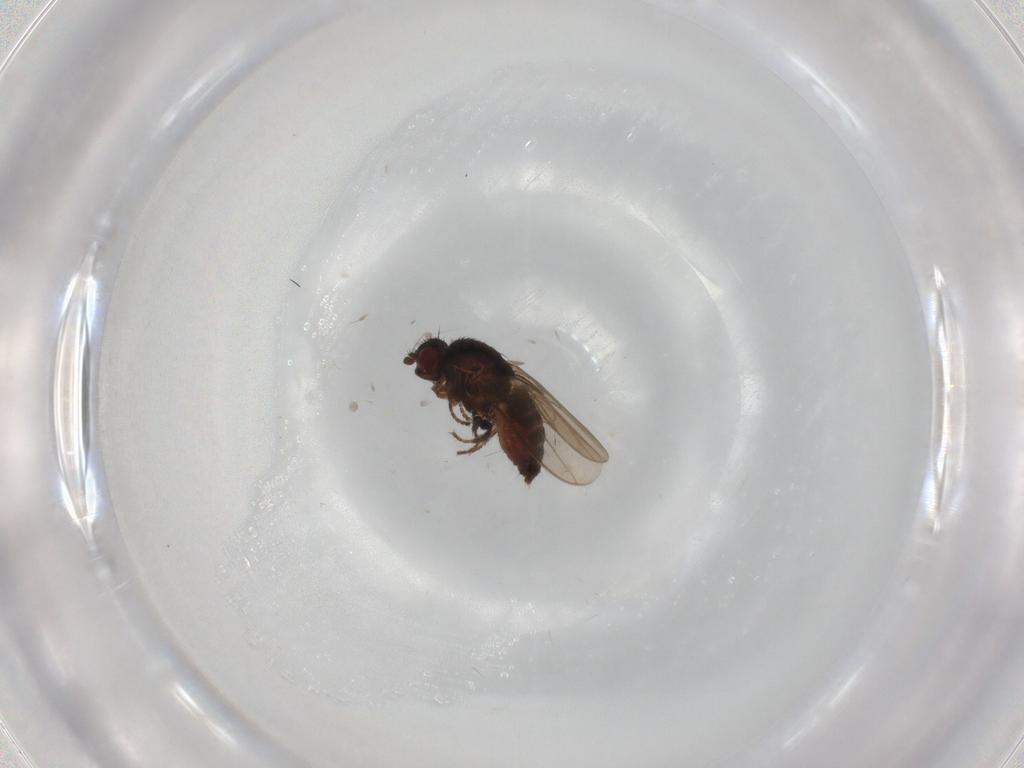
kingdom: Animalia
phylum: Arthropoda
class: Insecta
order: Diptera
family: Sphaeroceridae
